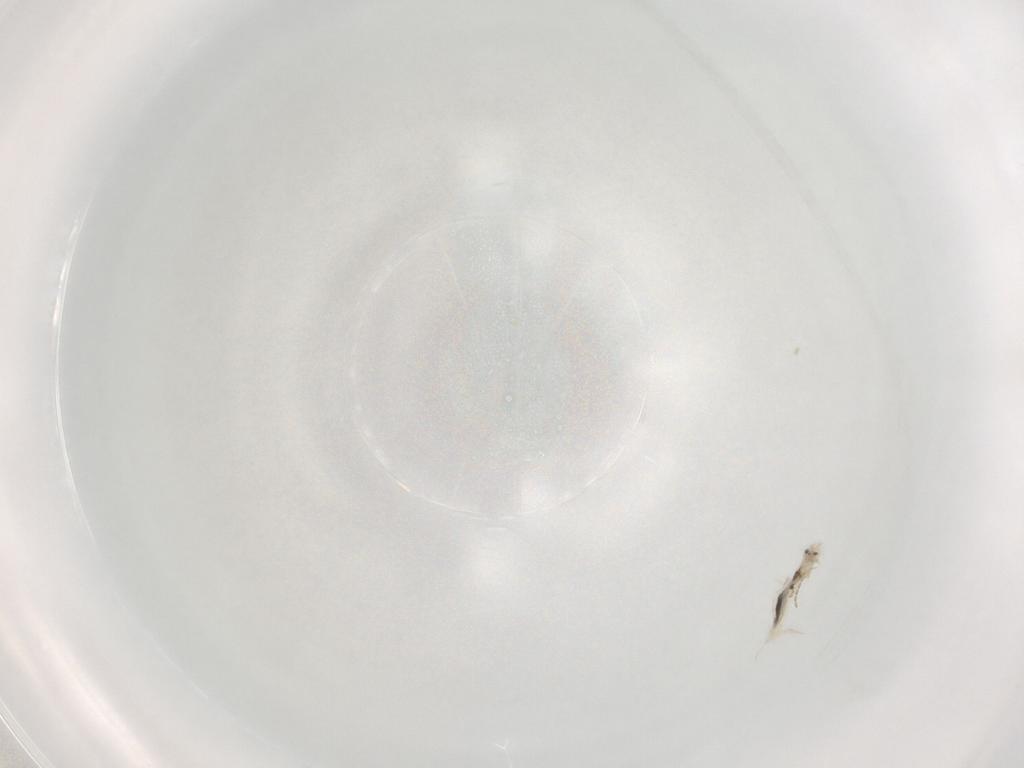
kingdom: Animalia
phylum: Arthropoda
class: Collembola
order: Entomobryomorpha
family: Entomobryidae
